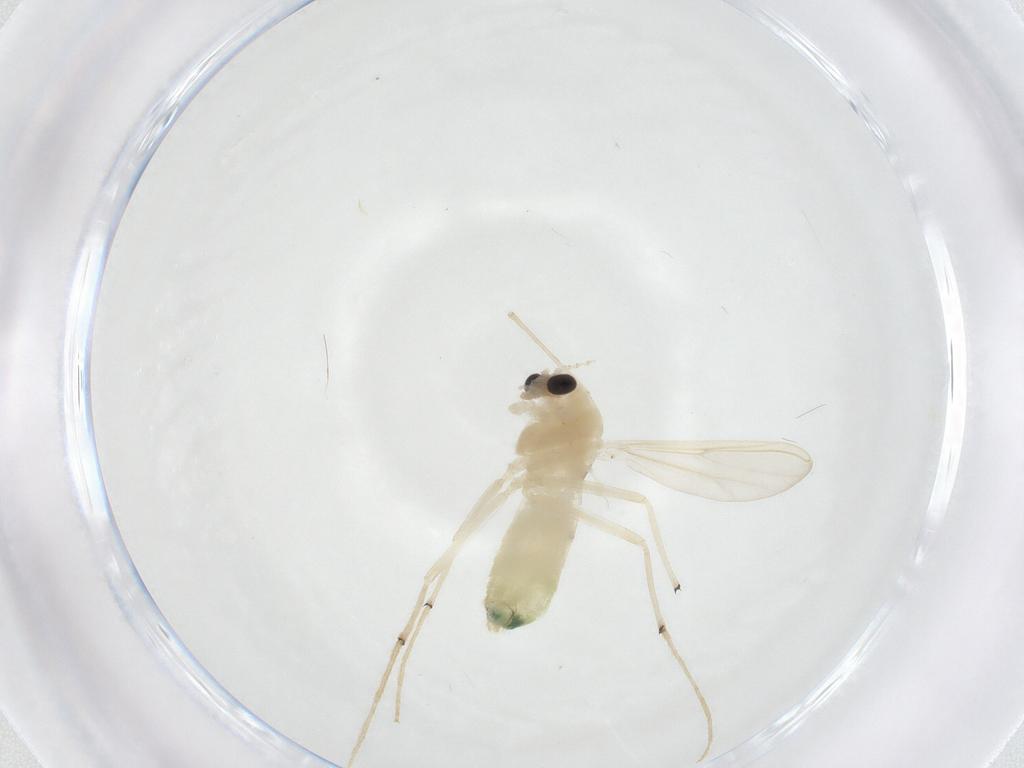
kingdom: Animalia
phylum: Arthropoda
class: Insecta
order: Diptera
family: Chironomidae
